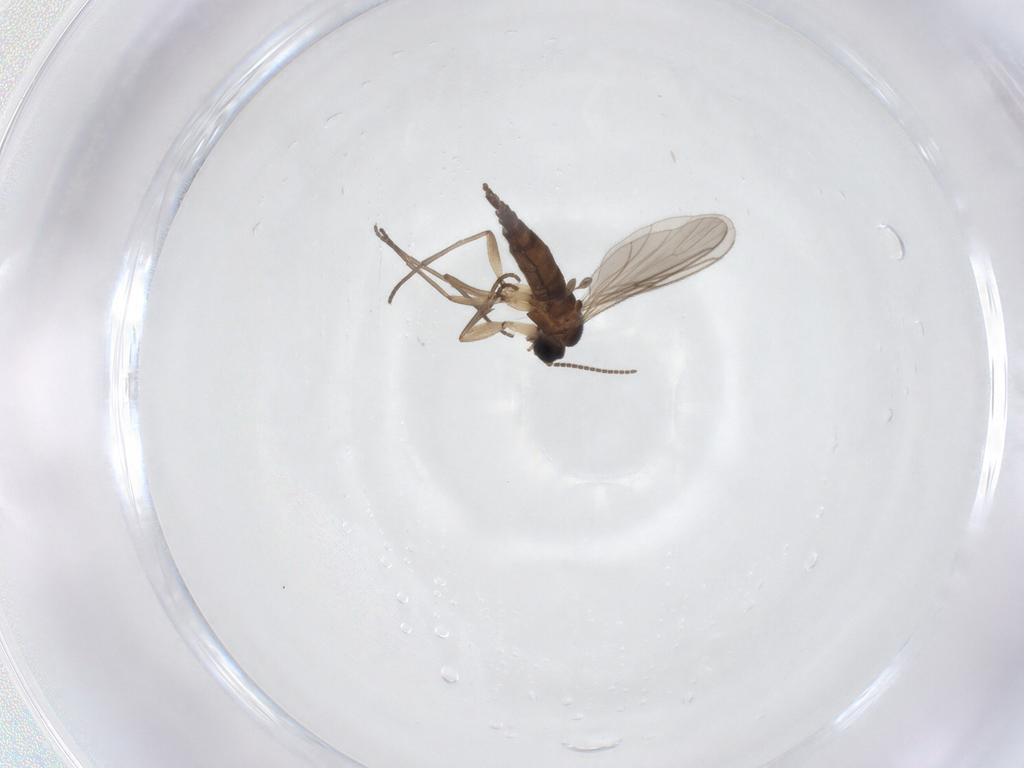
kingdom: Animalia
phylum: Arthropoda
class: Insecta
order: Diptera
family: Sciaridae
